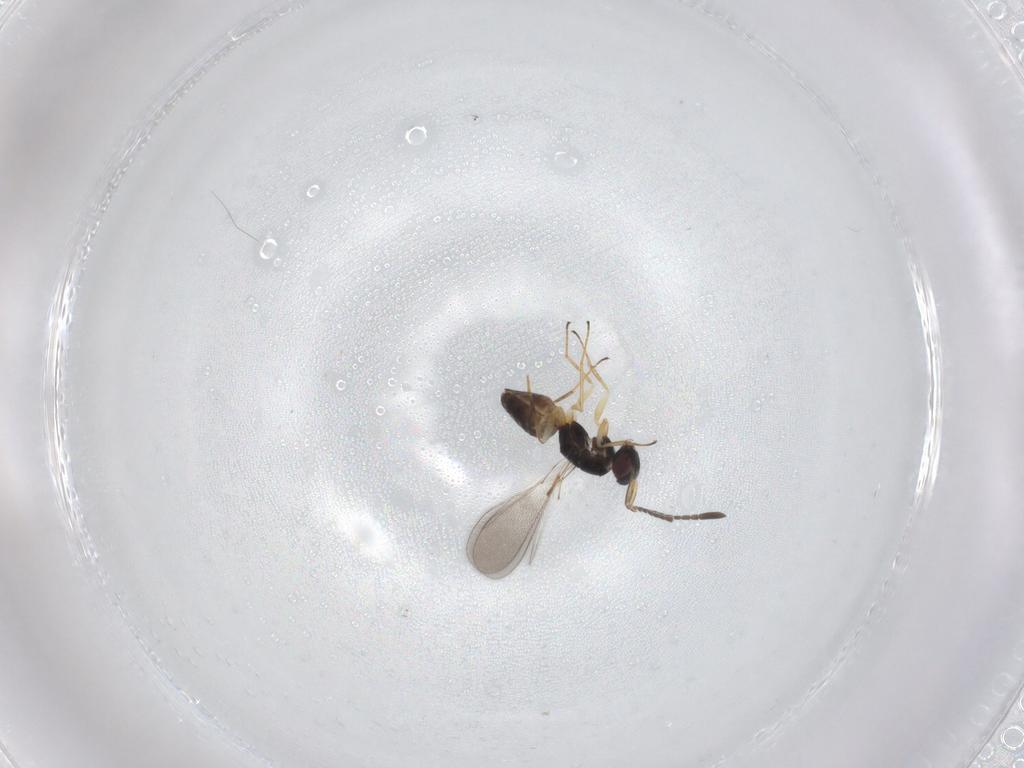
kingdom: Animalia
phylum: Arthropoda
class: Insecta
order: Hymenoptera
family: Mymaridae
